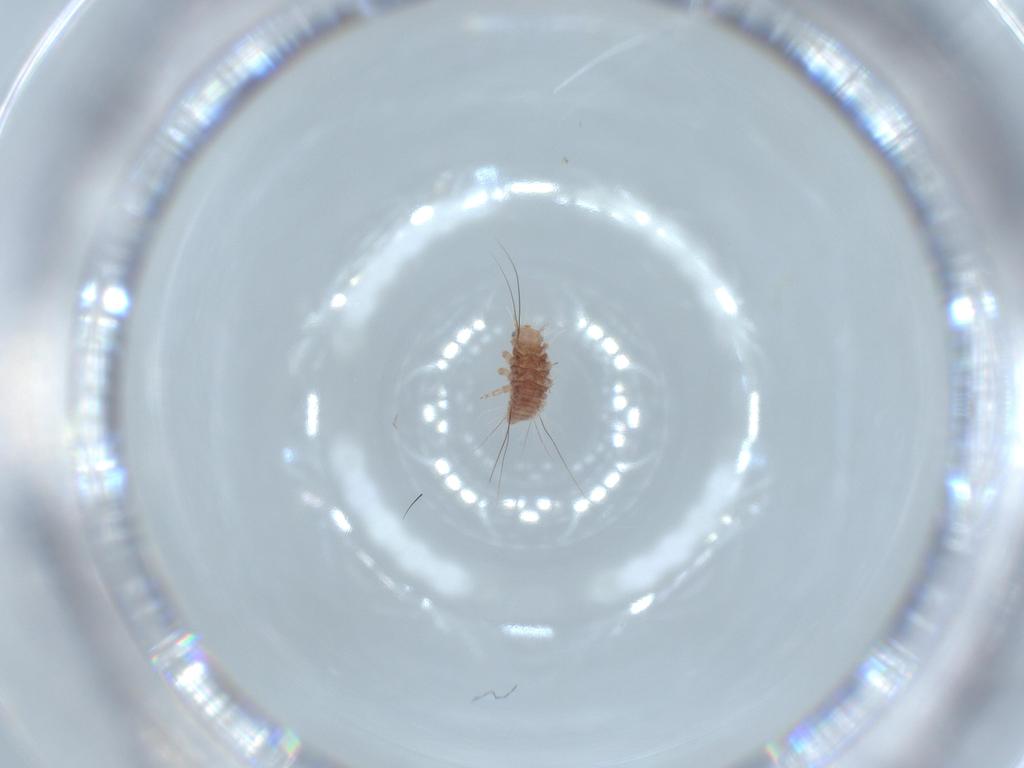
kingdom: Animalia
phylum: Arthropoda
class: Insecta
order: Neuroptera
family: Chrysopidae
